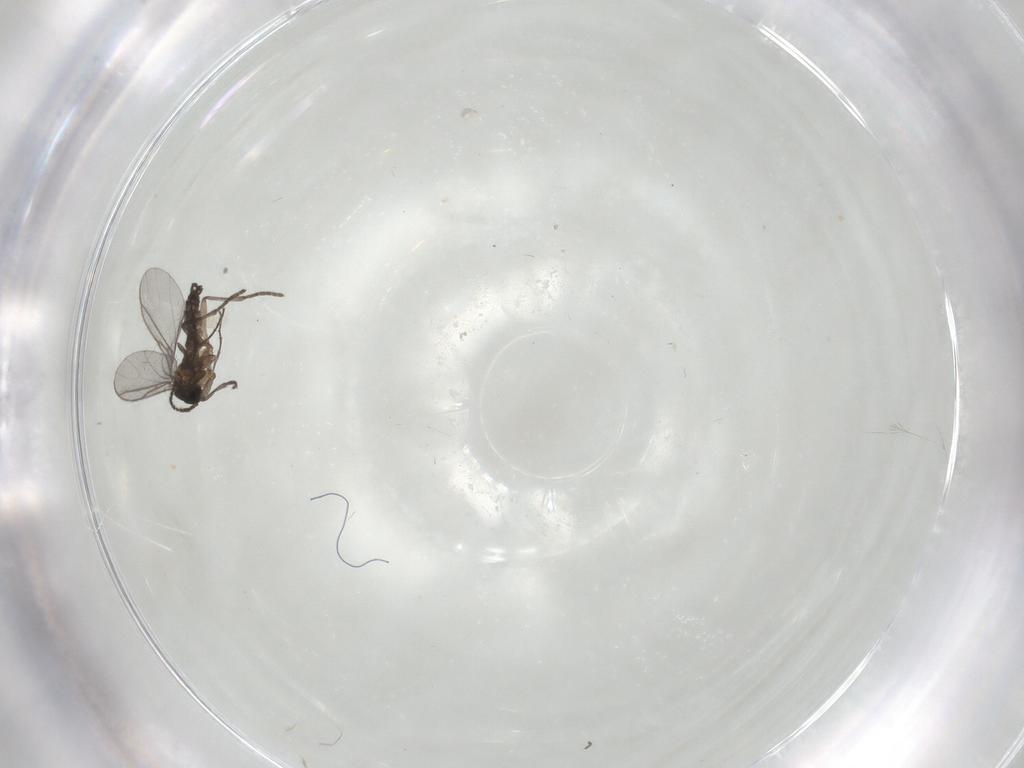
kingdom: Animalia
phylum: Arthropoda
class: Insecta
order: Diptera
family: Sciaridae
